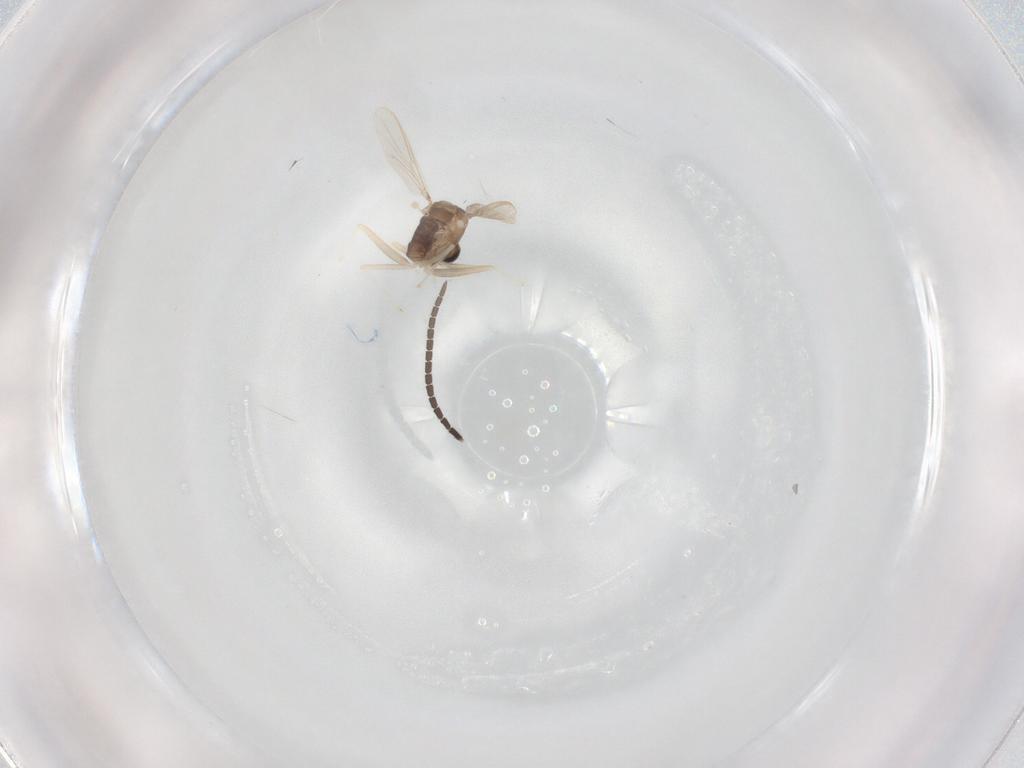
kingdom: Animalia
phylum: Arthropoda
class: Insecta
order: Diptera
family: Chironomidae
